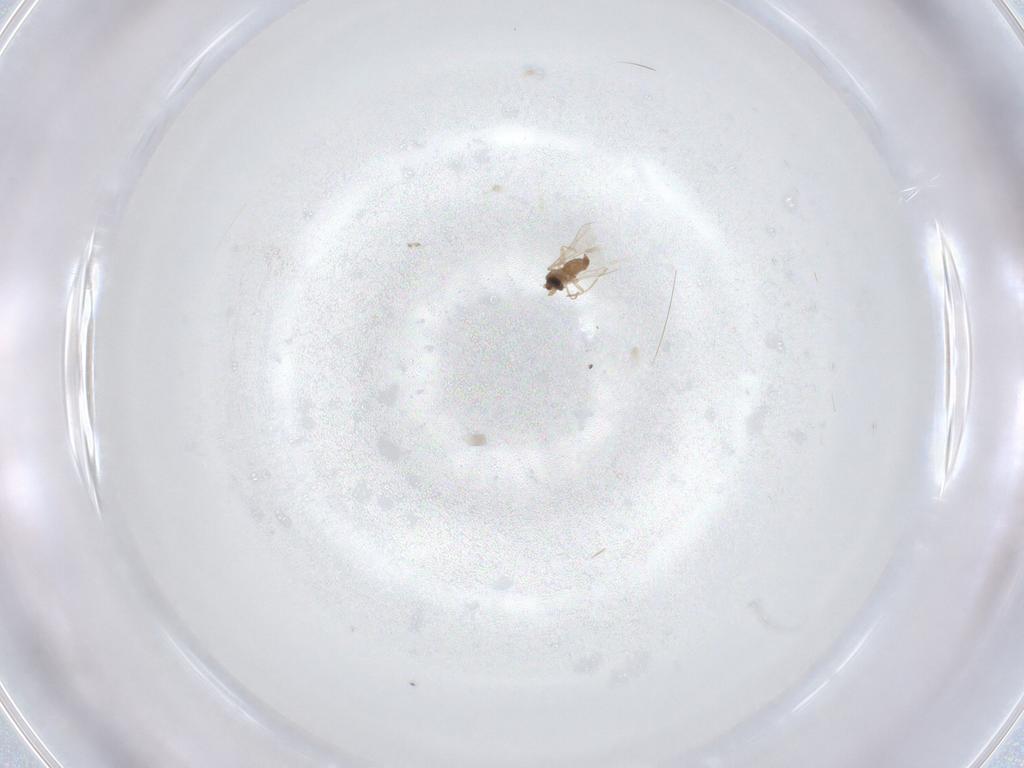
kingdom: Animalia
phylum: Arthropoda
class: Insecta
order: Diptera
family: Cecidomyiidae
